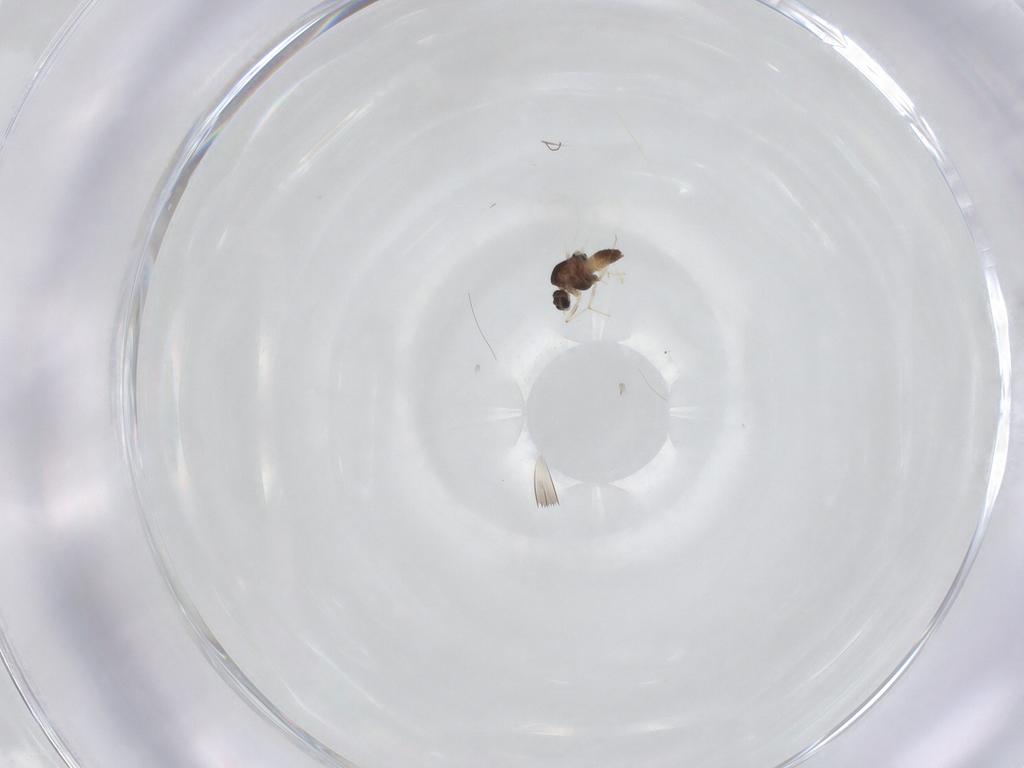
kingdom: Animalia
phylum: Arthropoda
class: Insecta
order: Diptera
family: Chironomidae
